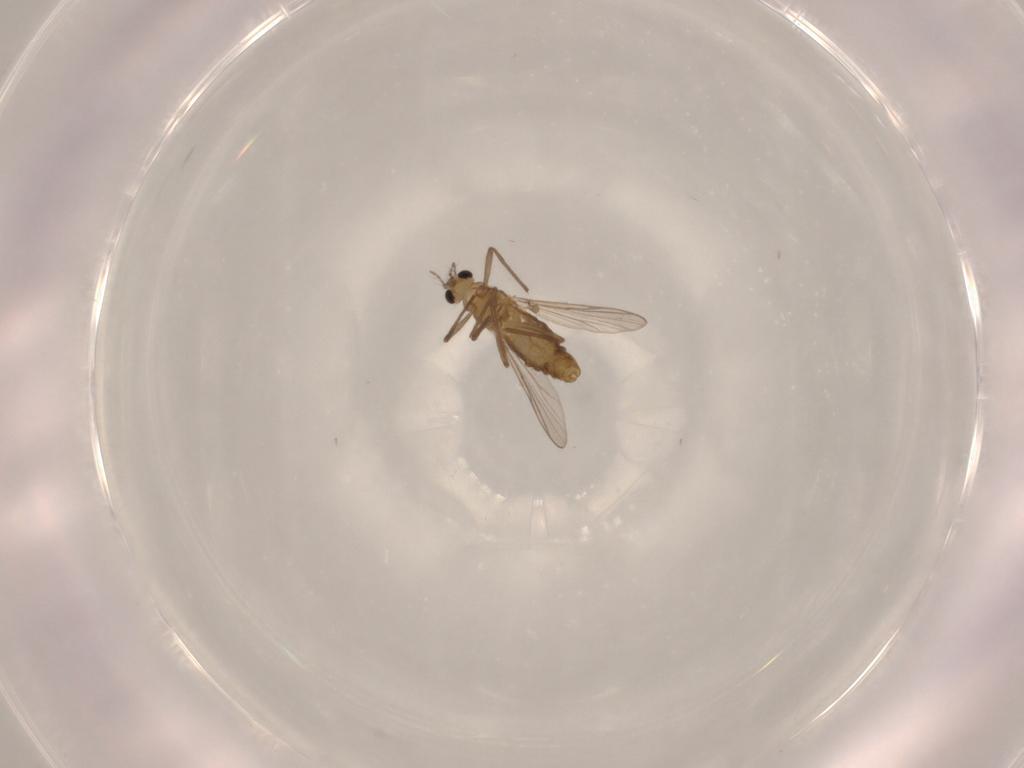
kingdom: Animalia
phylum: Arthropoda
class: Insecta
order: Diptera
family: Chironomidae
